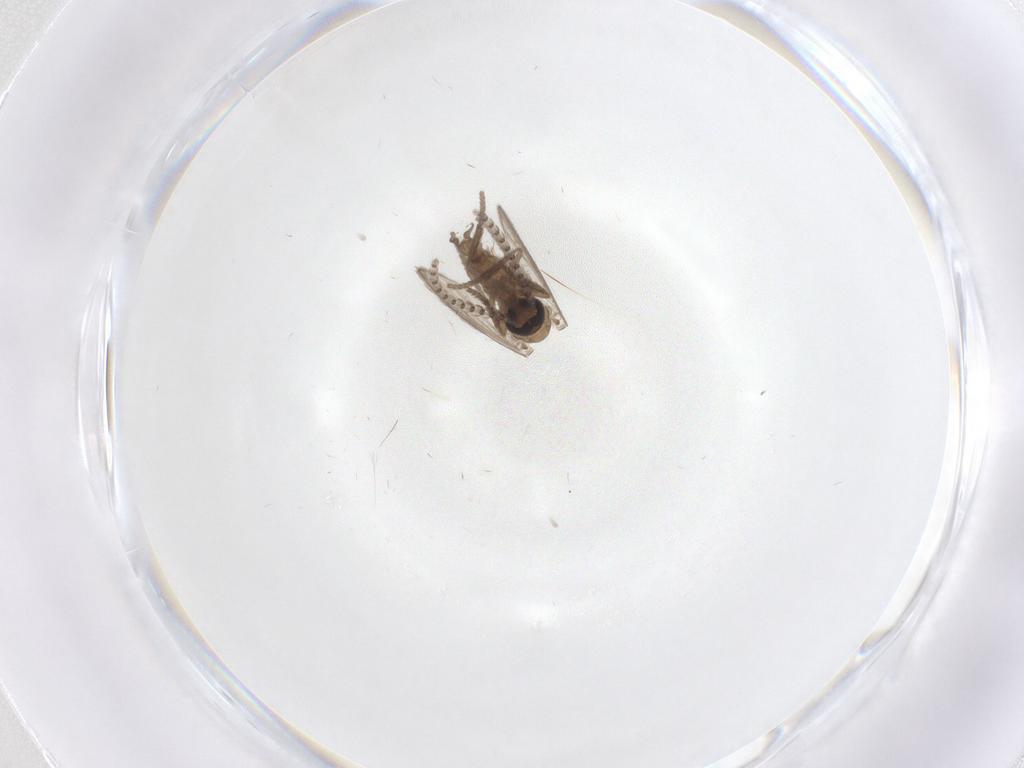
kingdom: Animalia
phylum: Arthropoda
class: Insecta
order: Diptera
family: Psychodidae
